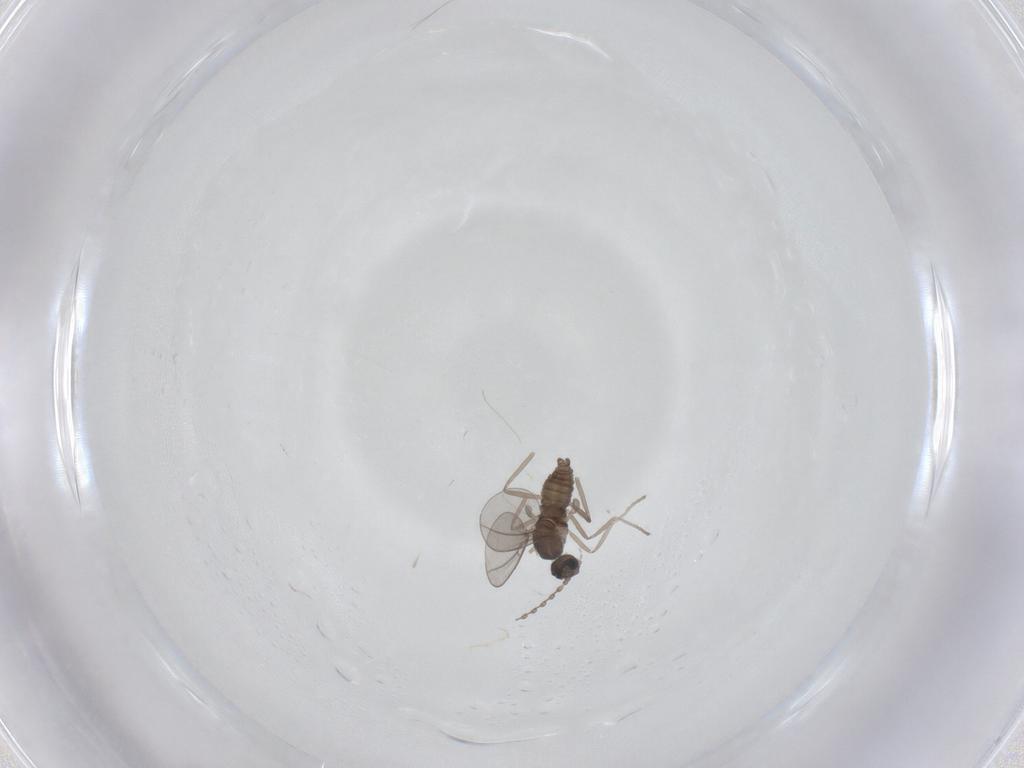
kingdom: Animalia
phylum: Arthropoda
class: Insecta
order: Diptera
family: Cecidomyiidae
